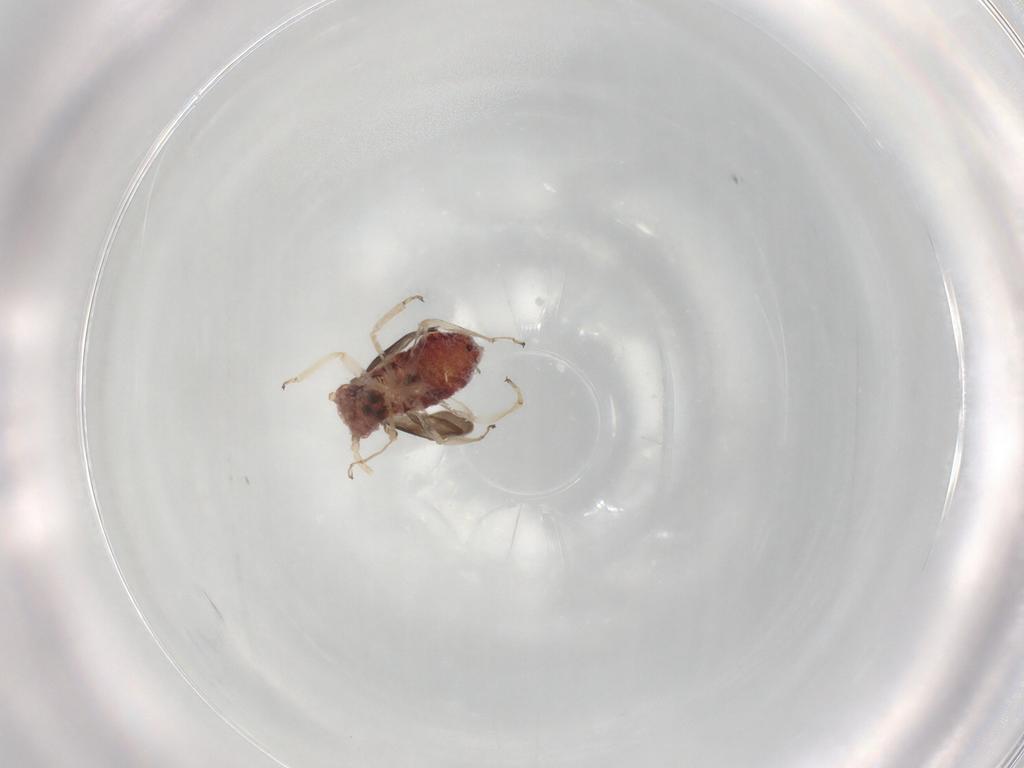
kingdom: Animalia
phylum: Arthropoda
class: Insecta
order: Psocodea
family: Caeciliusidae
